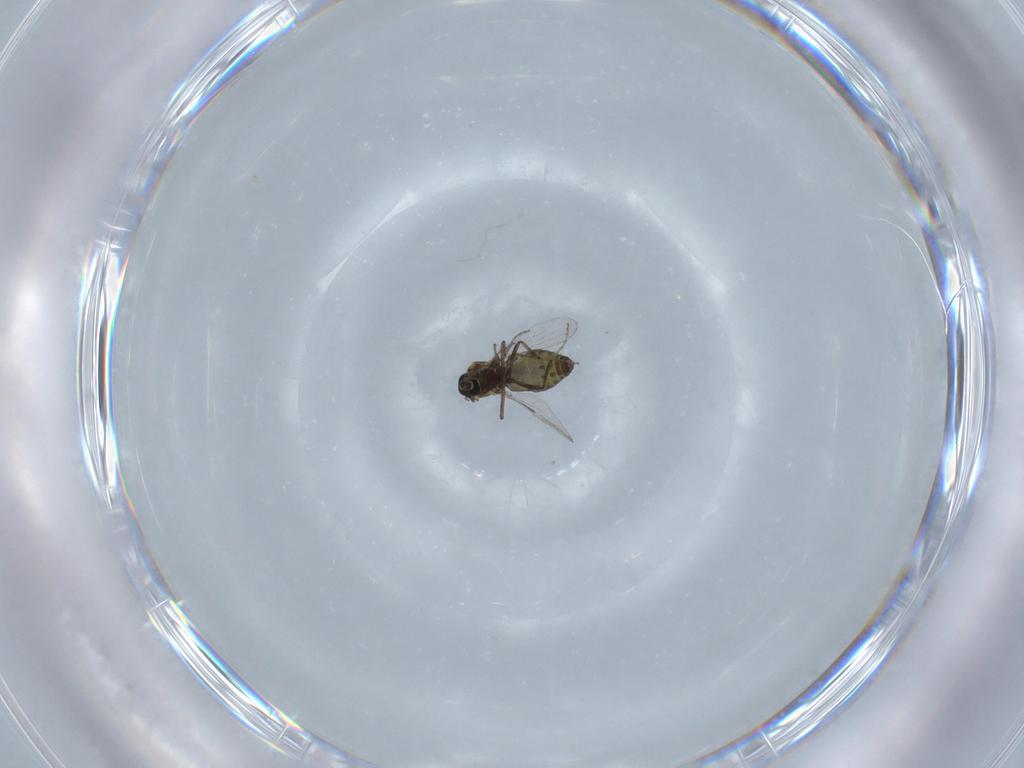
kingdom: Animalia
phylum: Arthropoda
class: Insecta
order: Diptera
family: Ceratopogonidae
